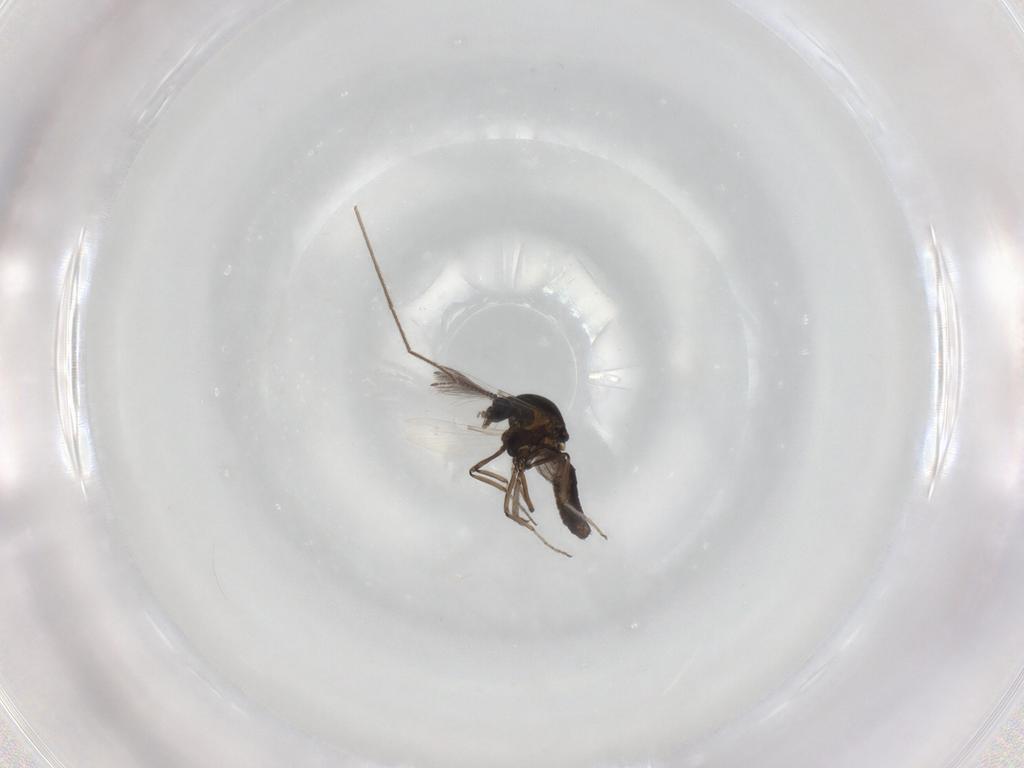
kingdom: Animalia
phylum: Arthropoda
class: Insecta
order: Diptera
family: Ceratopogonidae
